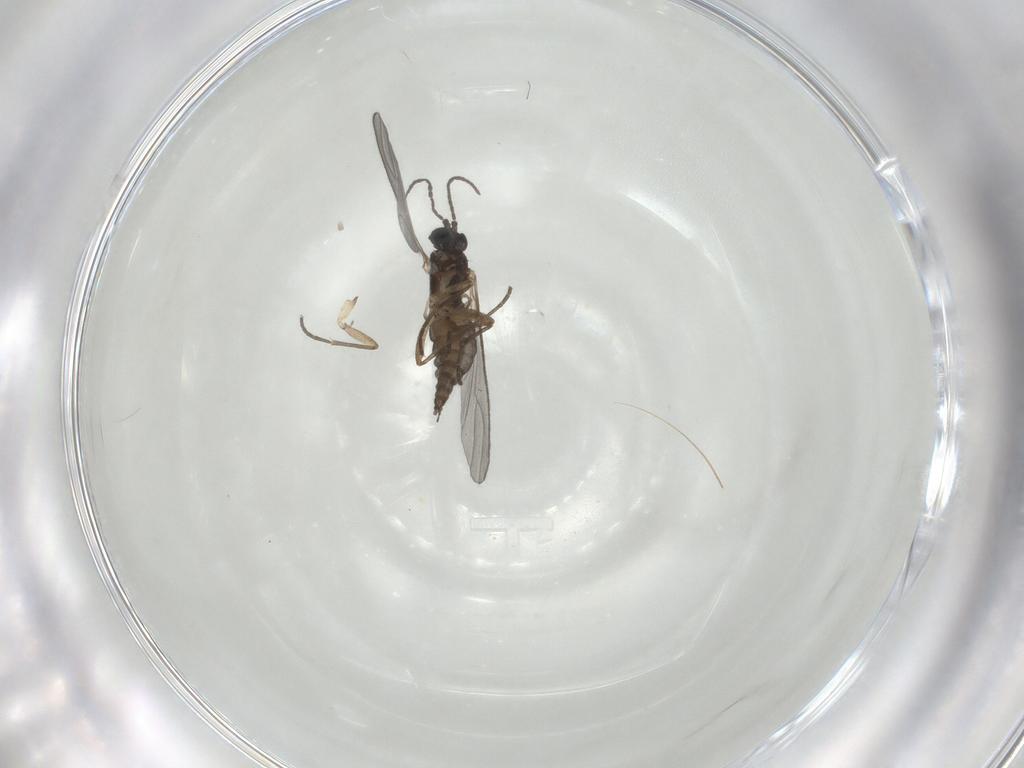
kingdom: Animalia
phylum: Arthropoda
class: Insecta
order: Diptera
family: Sciaridae
